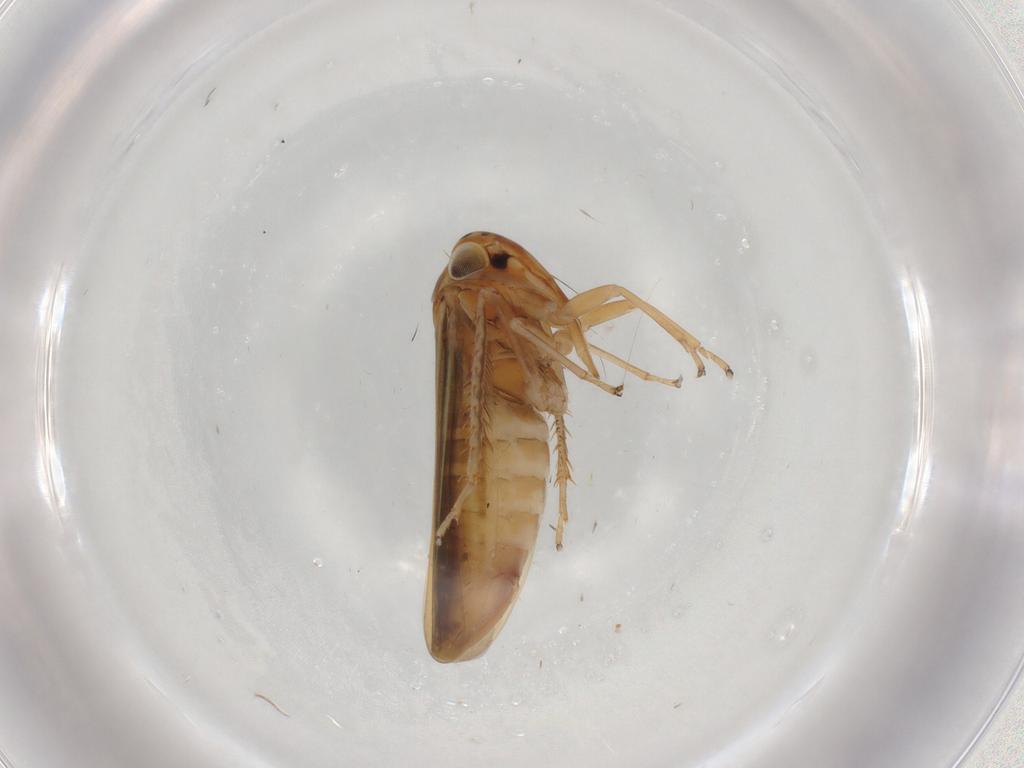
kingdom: Animalia
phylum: Arthropoda
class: Insecta
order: Hemiptera
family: Cicadellidae
